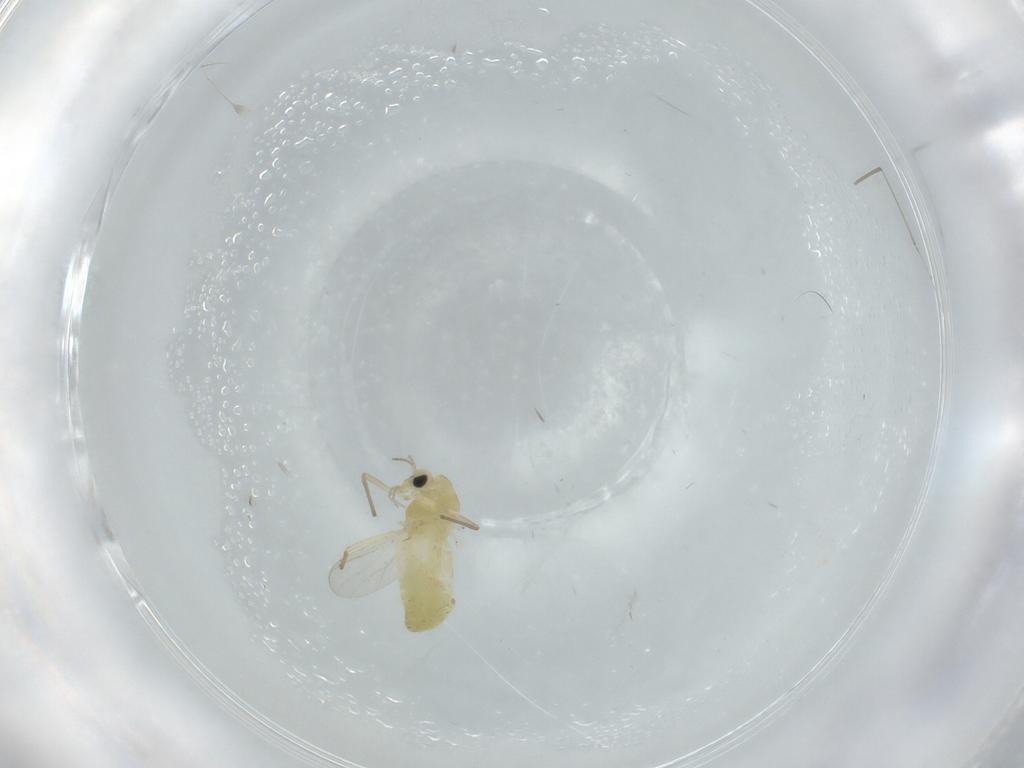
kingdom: Animalia
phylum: Arthropoda
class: Insecta
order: Diptera
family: Chironomidae
